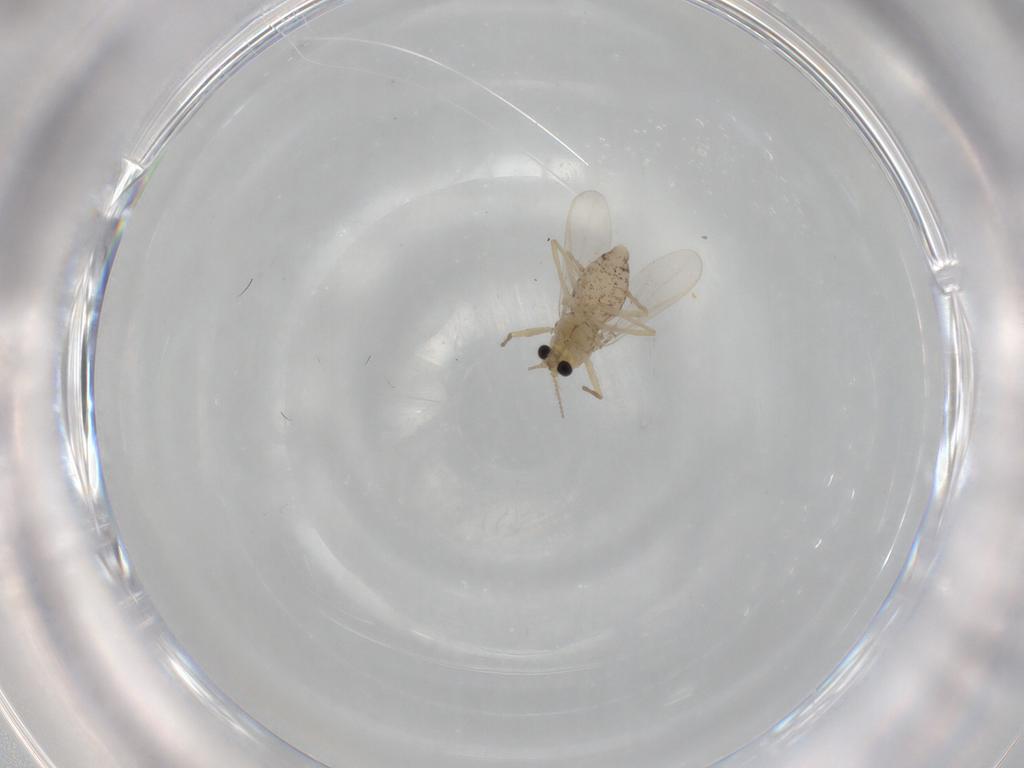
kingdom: Animalia
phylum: Arthropoda
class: Insecta
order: Diptera
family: Chironomidae
